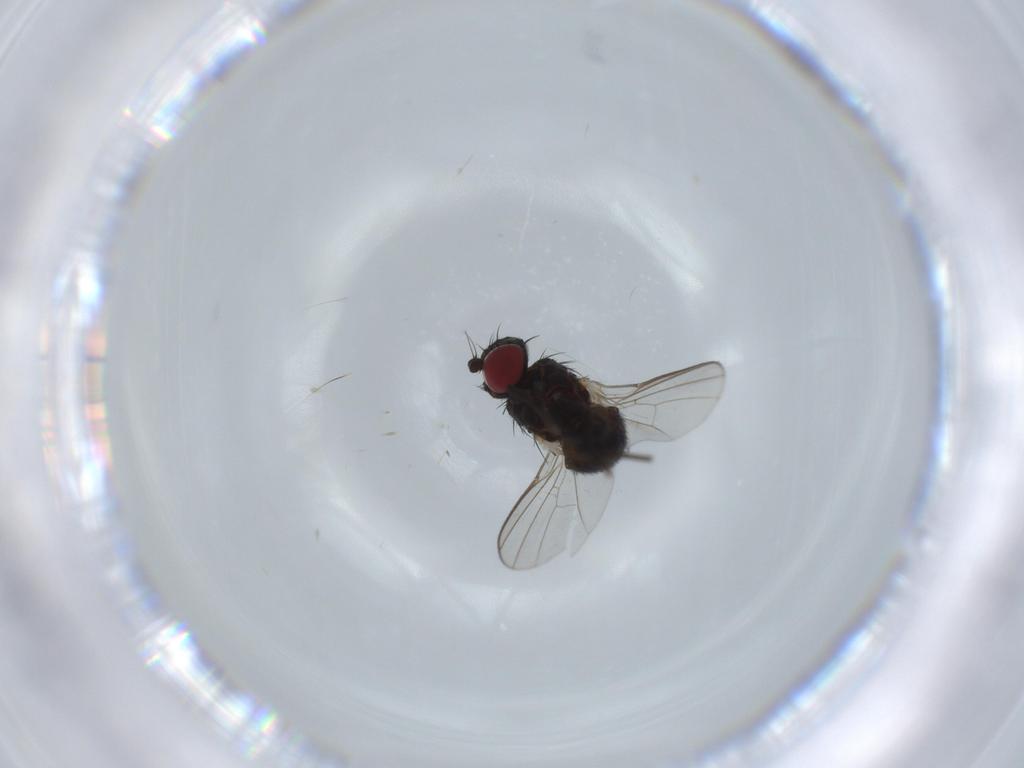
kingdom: Animalia
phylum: Arthropoda
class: Insecta
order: Diptera
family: Agromyzidae
